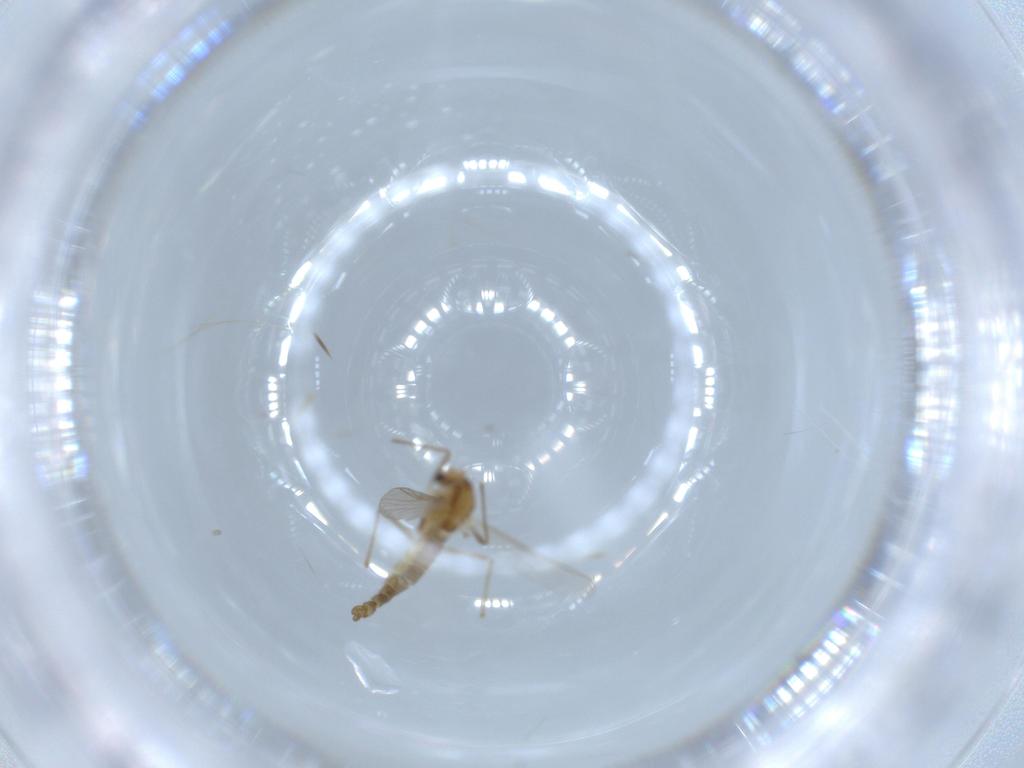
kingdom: Animalia
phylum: Arthropoda
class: Insecta
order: Diptera
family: Chironomidae
